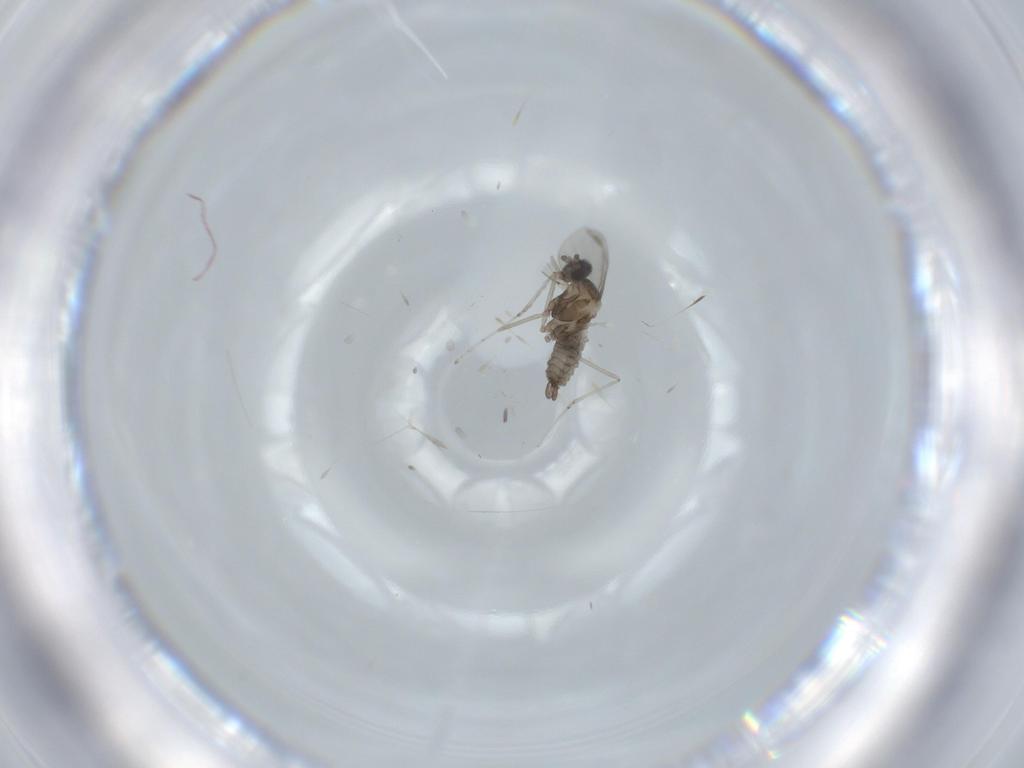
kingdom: Animalia
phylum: Arthropoda
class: Insecta
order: Diptera
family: Cecidomyiidae
